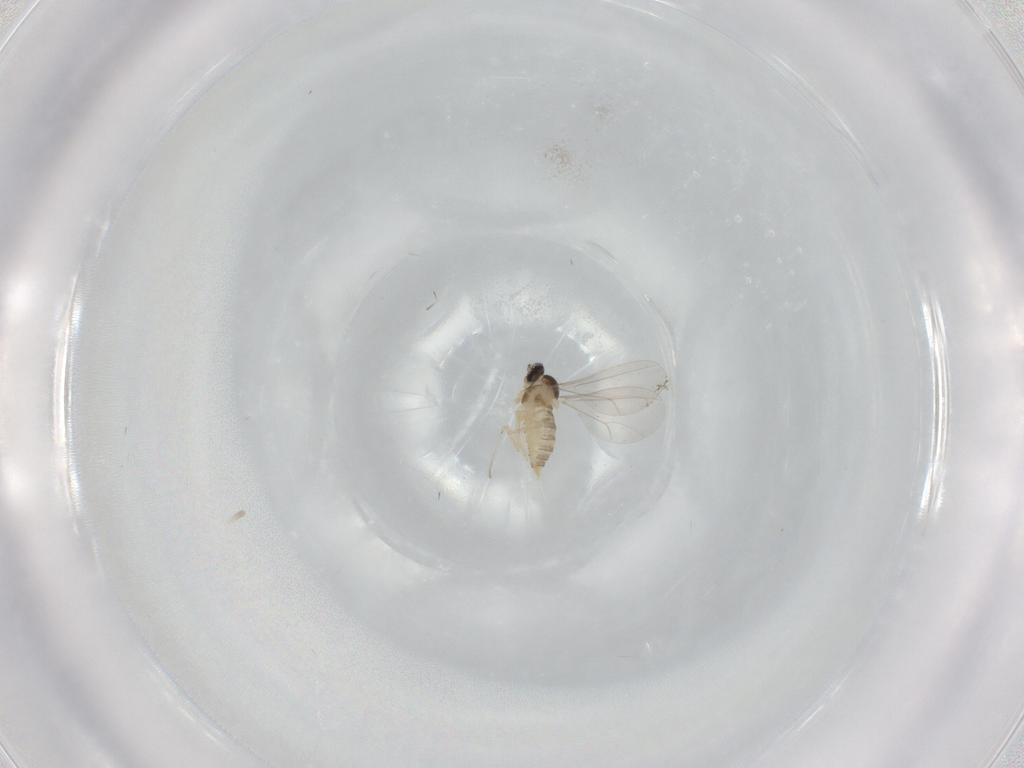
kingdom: Animalia
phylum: Arthropoda
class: Insecta
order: Diptera
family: Cecidomyiidae
